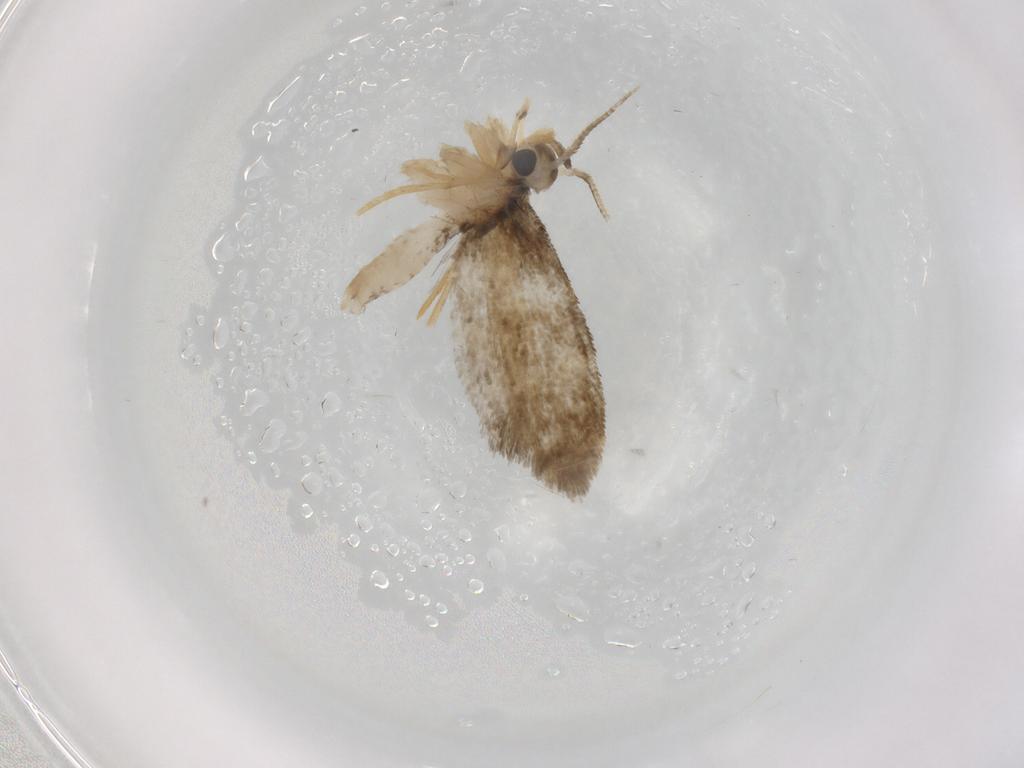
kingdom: Animalia
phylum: Arthropoda
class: Insecta
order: Lepidoptera
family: Psychidae
